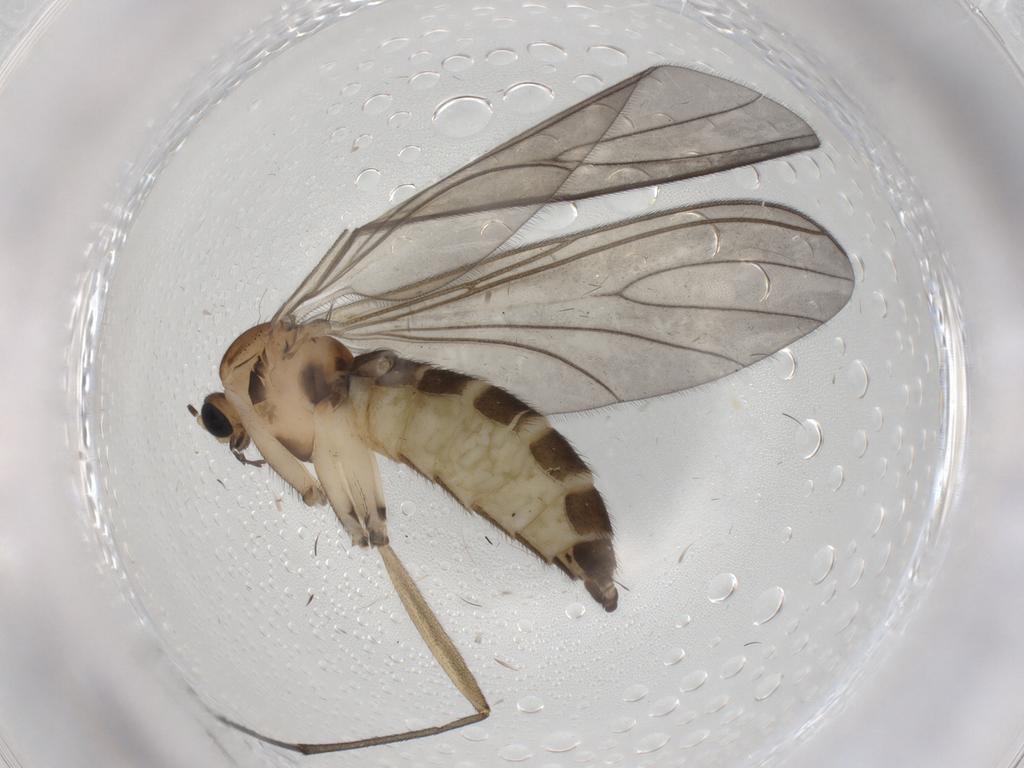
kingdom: Animalia
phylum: Arthropoda
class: Insecta
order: Diptera
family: Sciaridae
